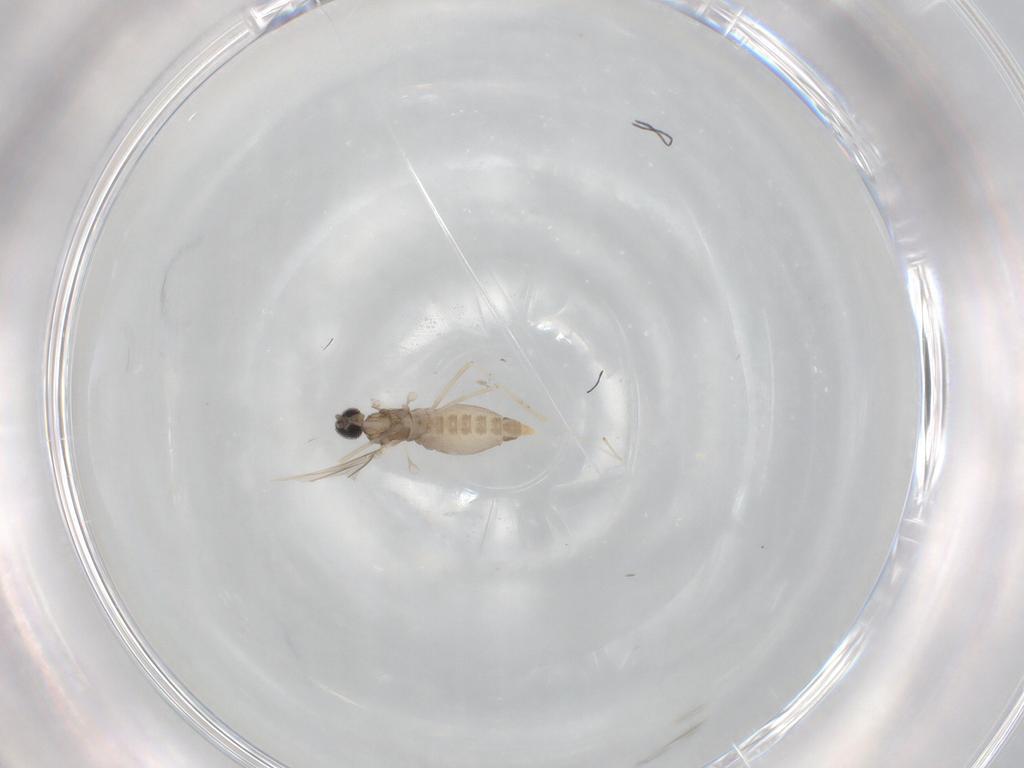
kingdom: Animalia
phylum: Arthropoda
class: Insecta
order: Diptera
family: Cecidomyiidae
